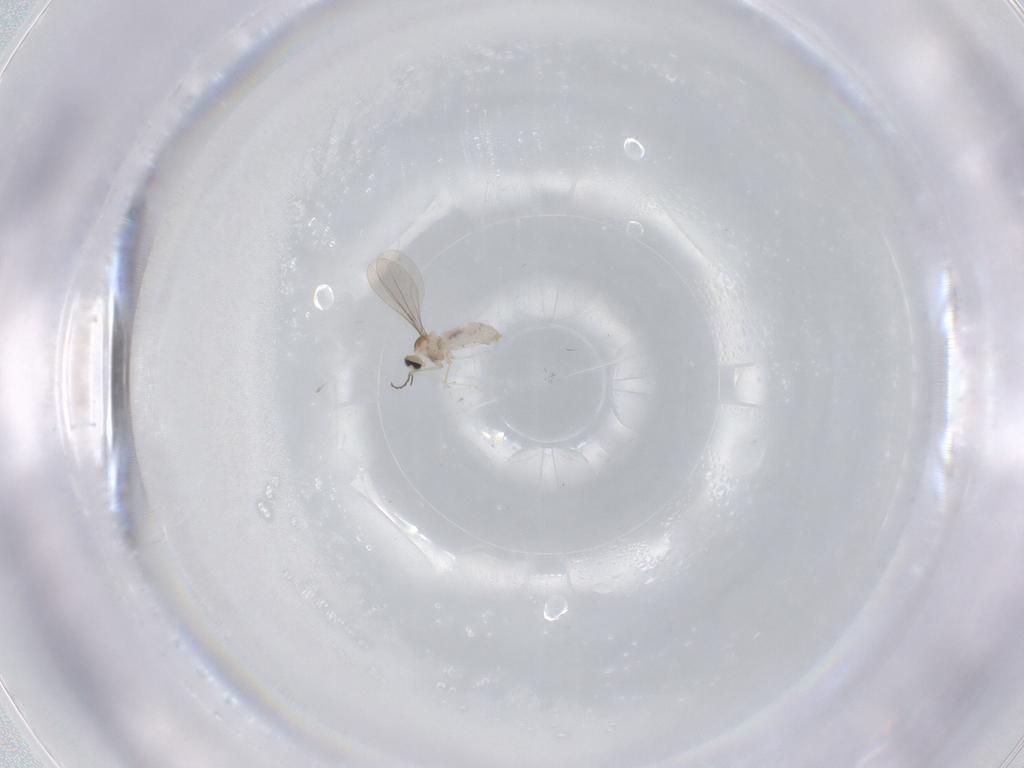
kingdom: Animalia
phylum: Arthropoda
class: Insecta
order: Diptera
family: Cecidomyiidae
